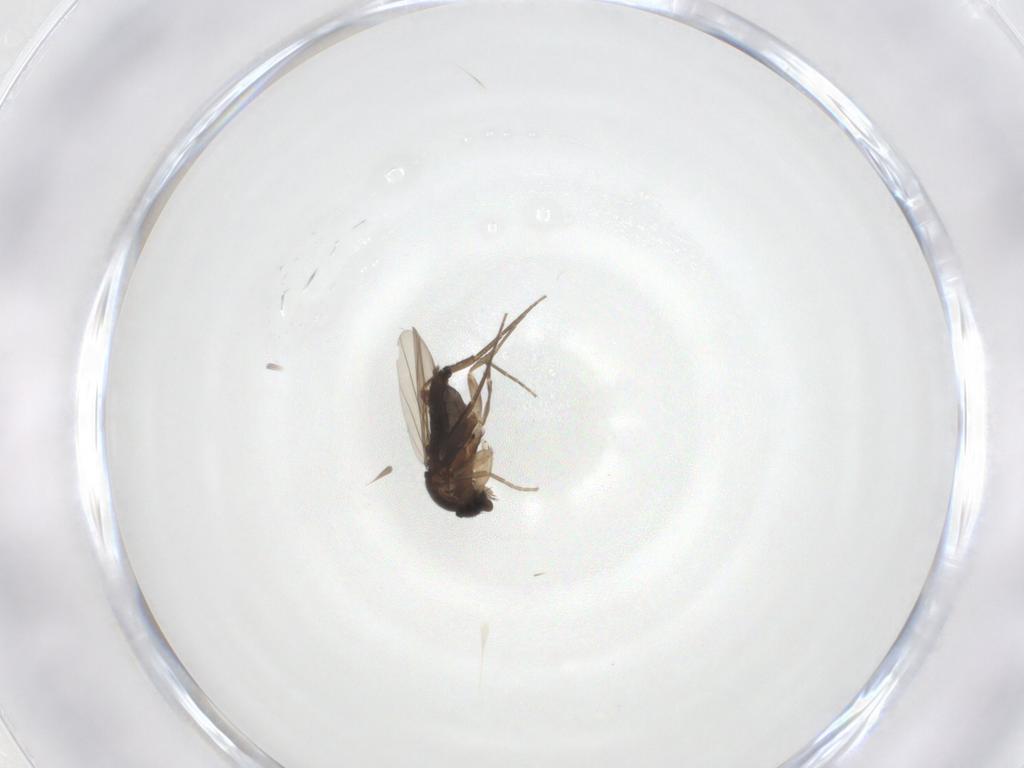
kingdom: Animalia
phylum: Arthropoda
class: Insecta
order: Diptera
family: Phoridae
